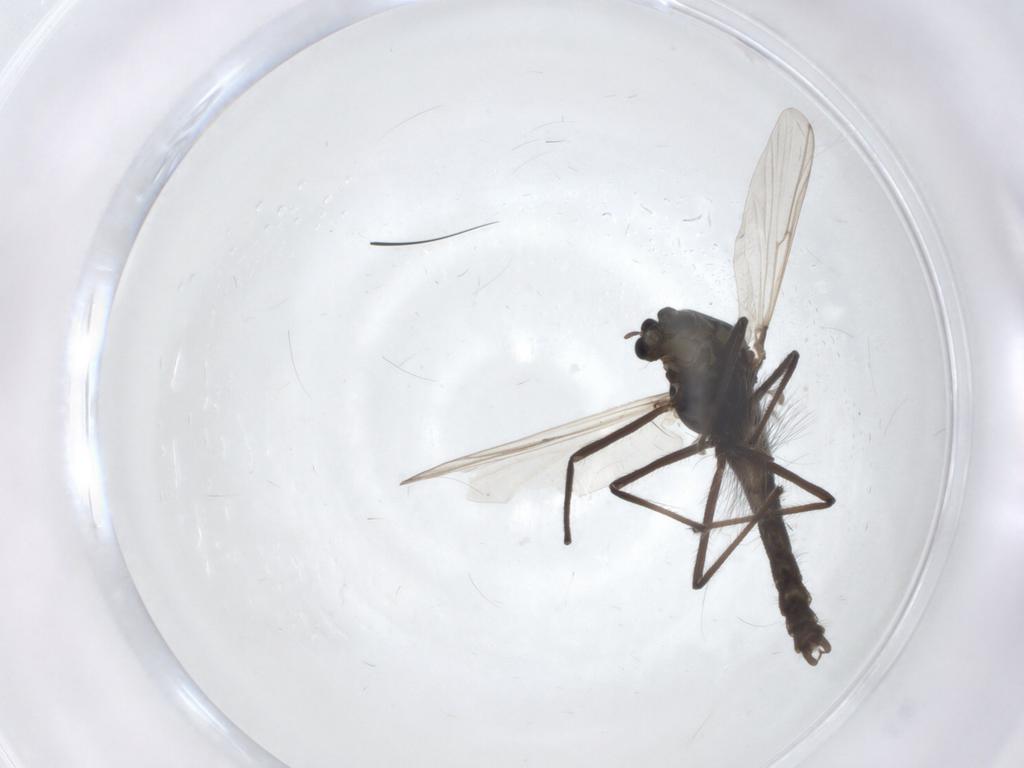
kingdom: Animalia
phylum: Arthropoda
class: Insecta
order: Diptera
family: Chironomidae
